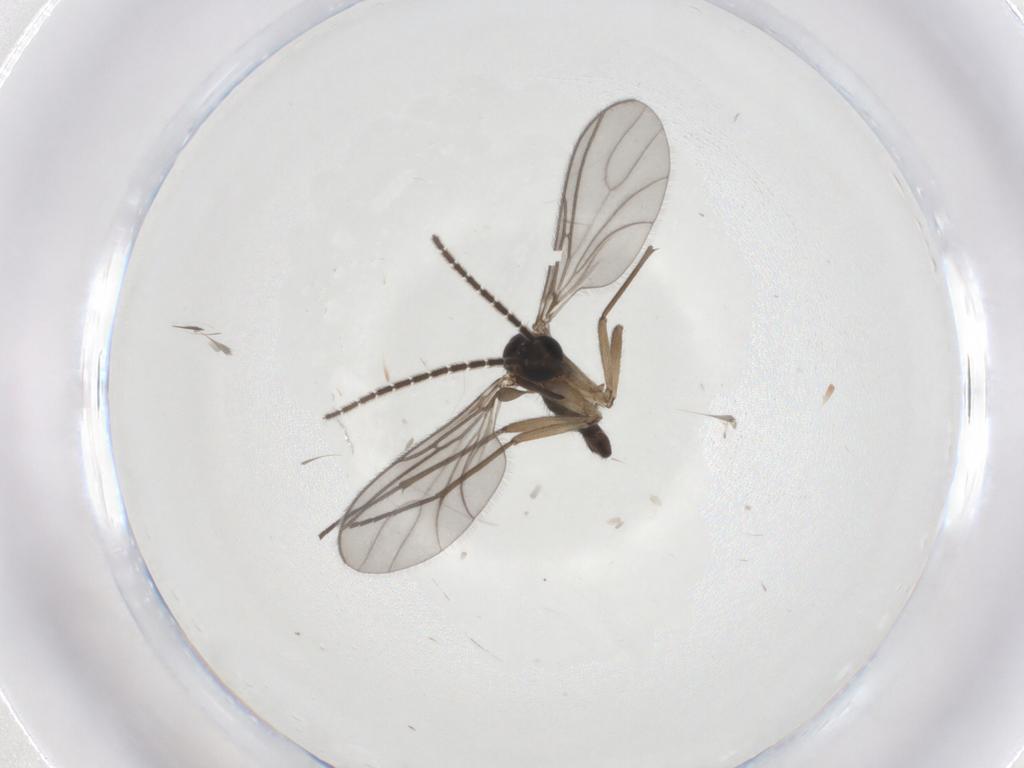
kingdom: Animalia
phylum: Arthropoda
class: Insecta
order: Diptera
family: Sciaridae
